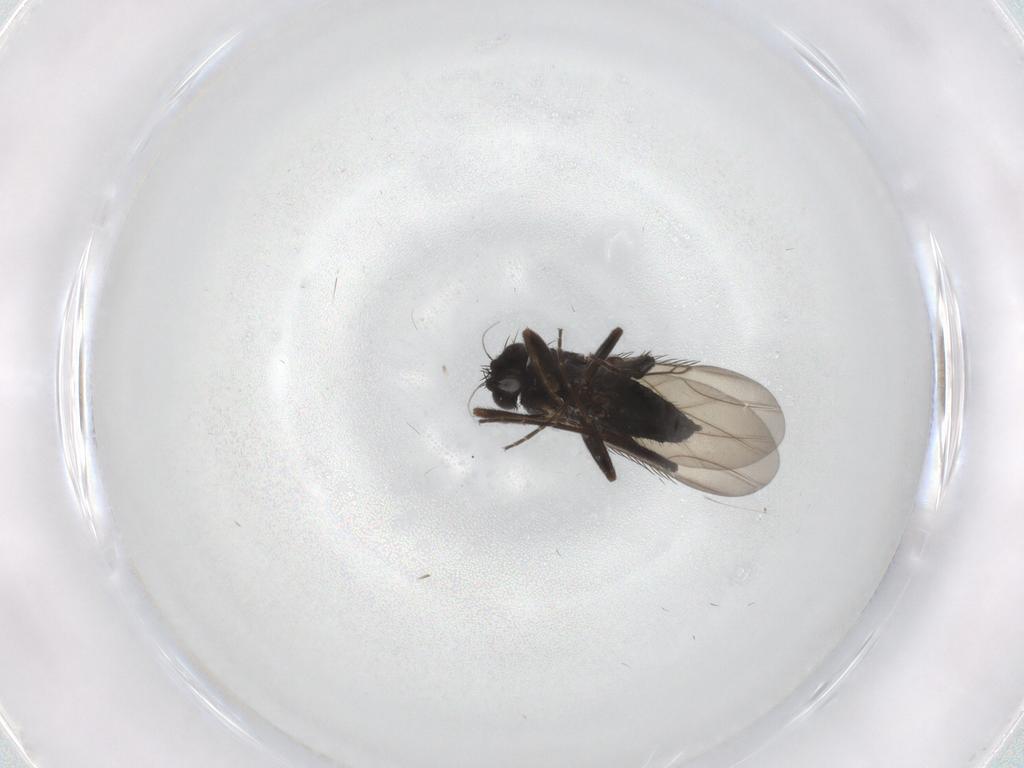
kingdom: Animalia
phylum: Arthropoda
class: Insecta
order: Diptera
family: Phoridae
